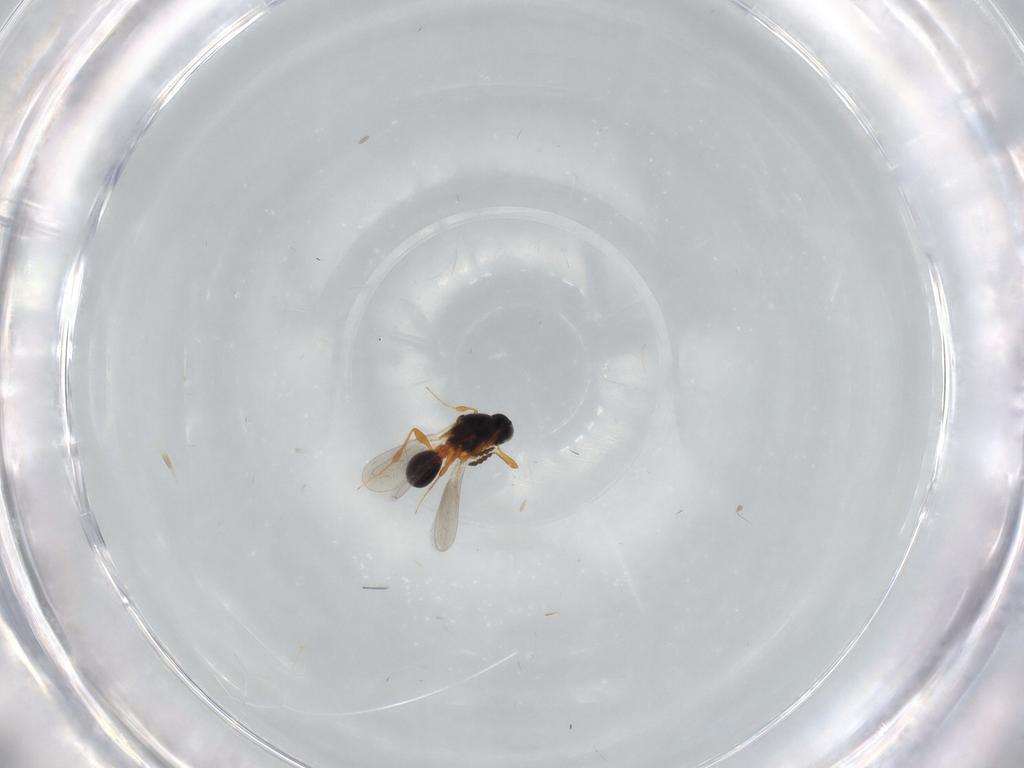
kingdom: Animalia
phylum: Arthropoda
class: Insecta
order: Hymenoptera
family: Platygastridae
